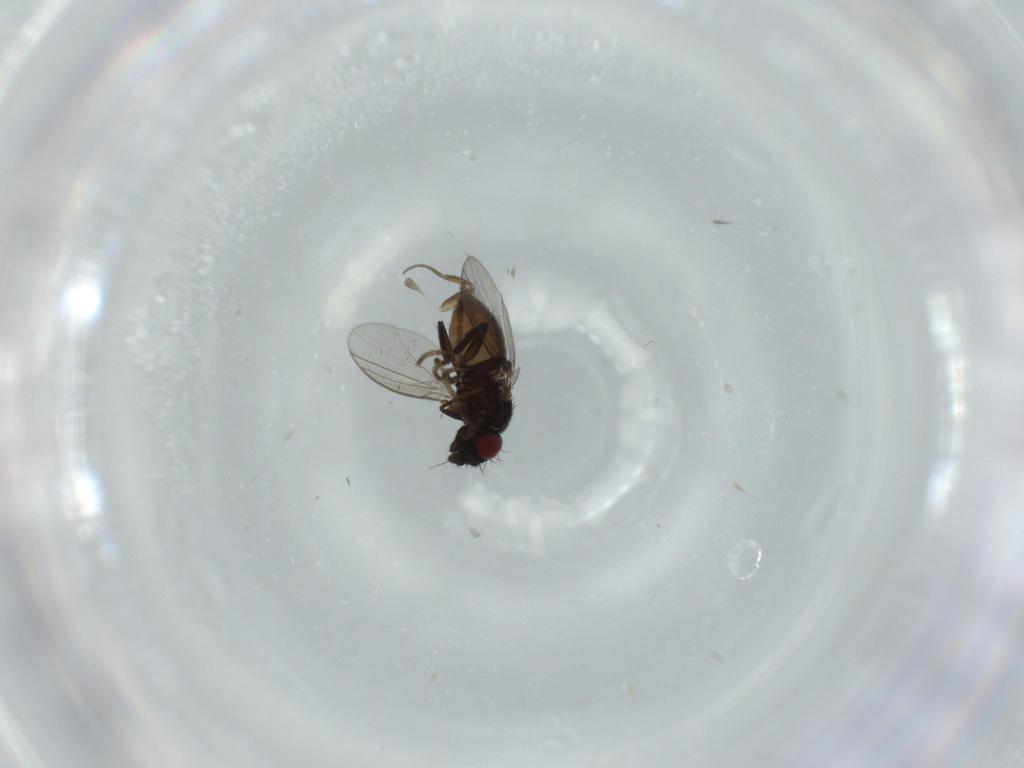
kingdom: Animalia
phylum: Arthropoda
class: Insecta
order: Diptera
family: Milichiidae
